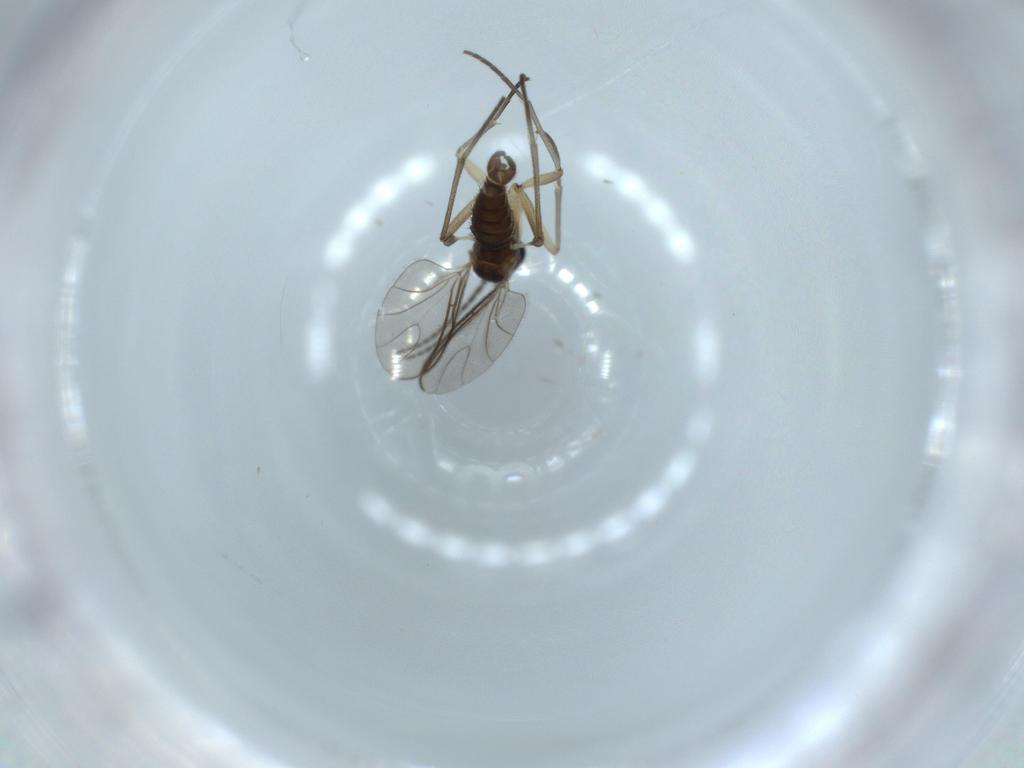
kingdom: Animalia
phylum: Arthropoda
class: Insecta
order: Diptera
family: Sciaridae
